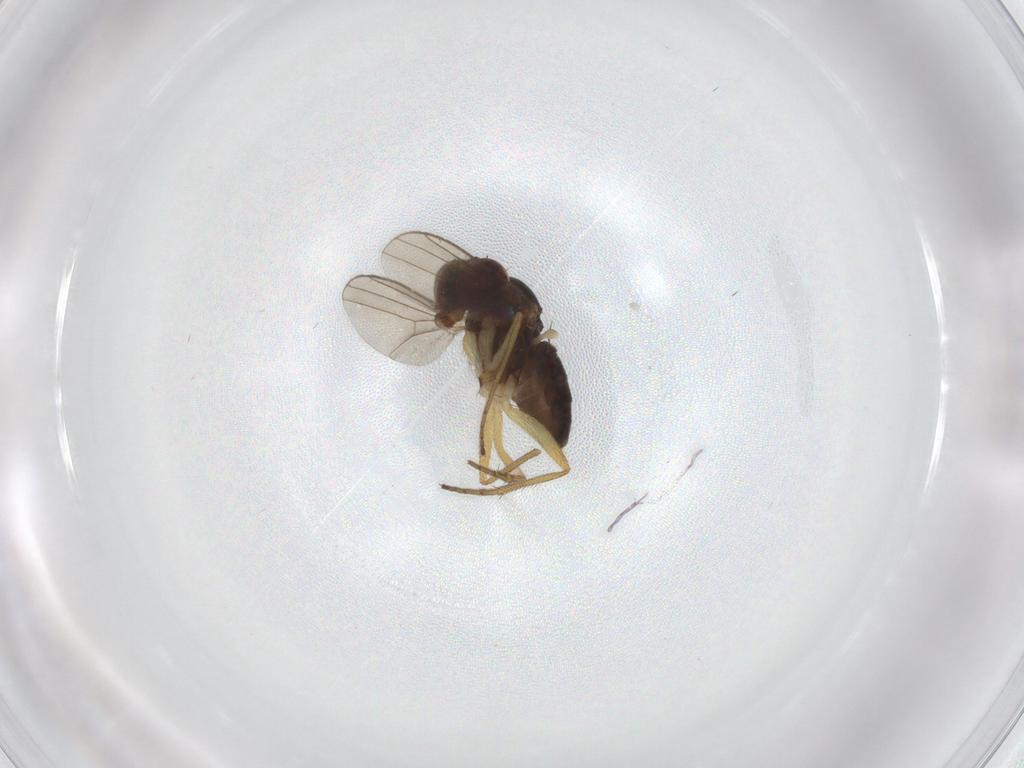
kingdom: Animalia
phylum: Arthropoda
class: Insecta
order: Diptera
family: Dolichopodidae
